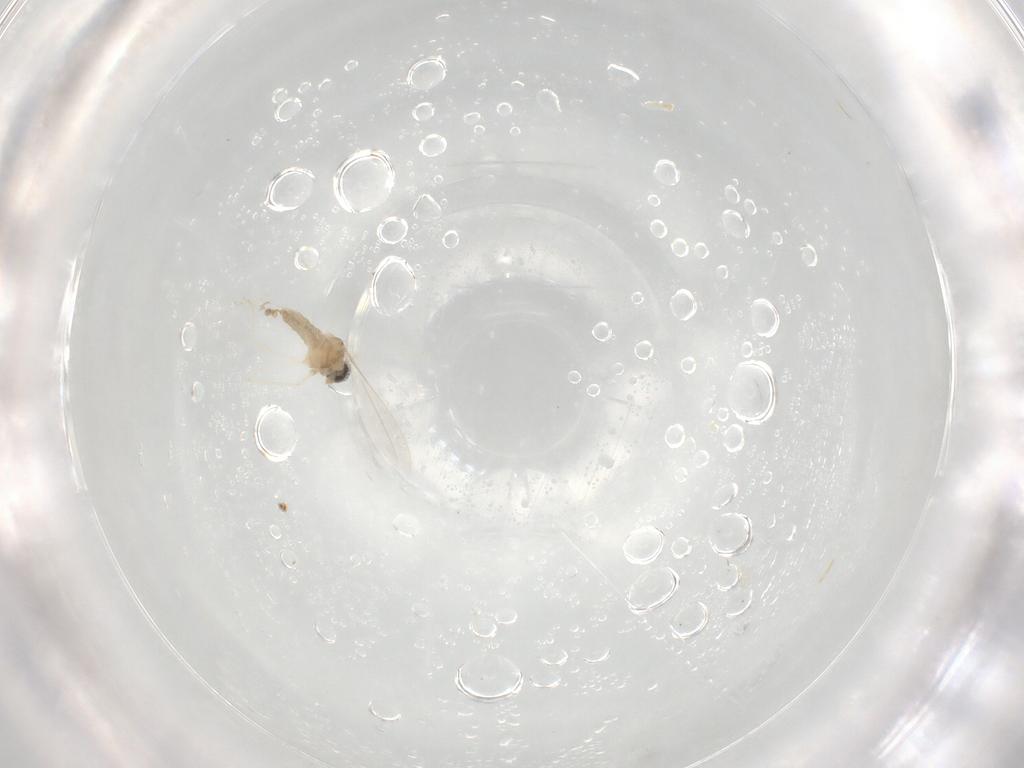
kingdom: Animalia
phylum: Arthropoda
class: Insecta
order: Diptera
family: Cecidomyiidae
